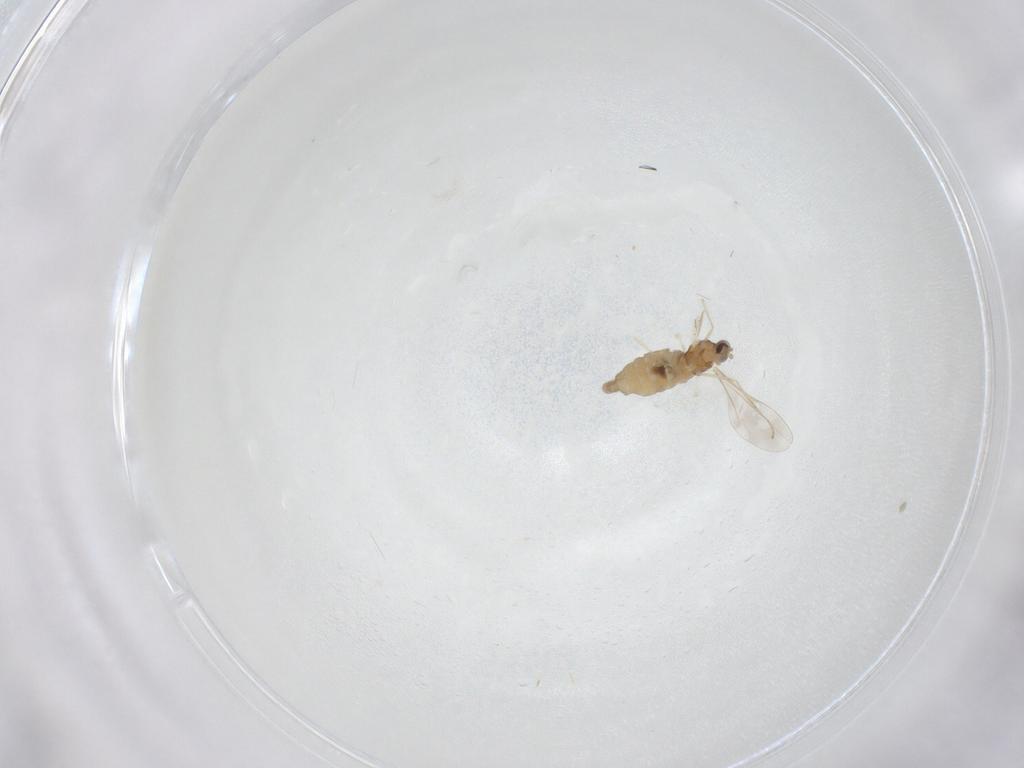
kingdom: Animalia
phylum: Arthropoda
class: Insecta
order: Diptera
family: Cecidomyiidae
